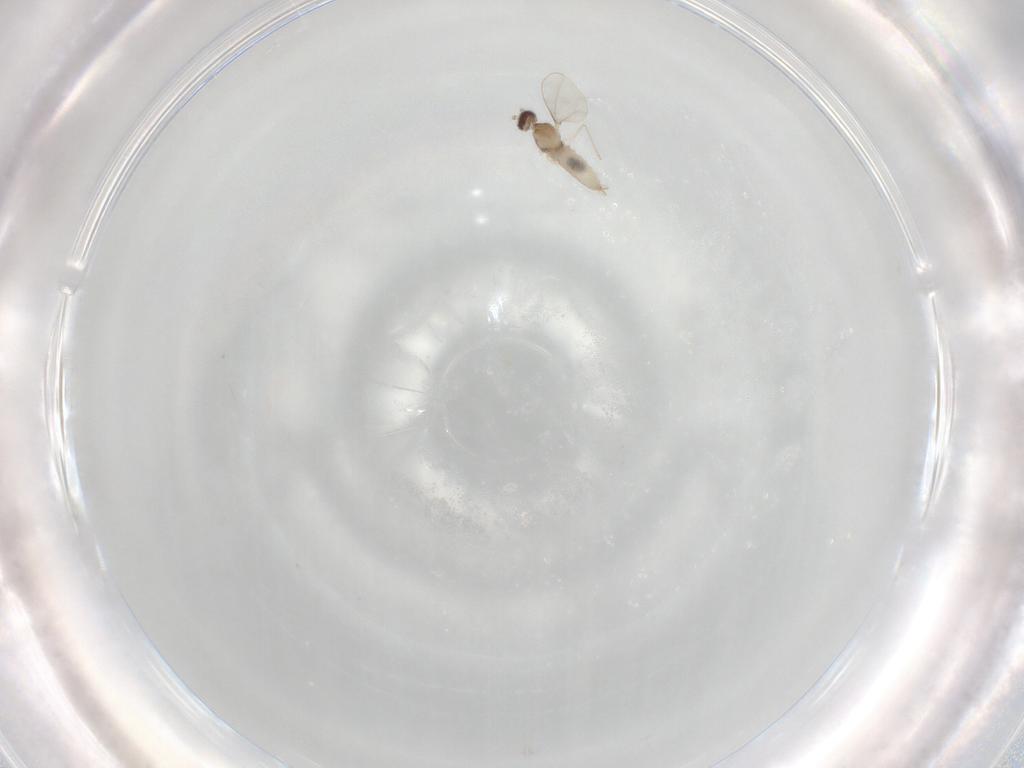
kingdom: Animalia
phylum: Arthropoda
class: Insecta
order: Diptera
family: Cecidomyiidae
